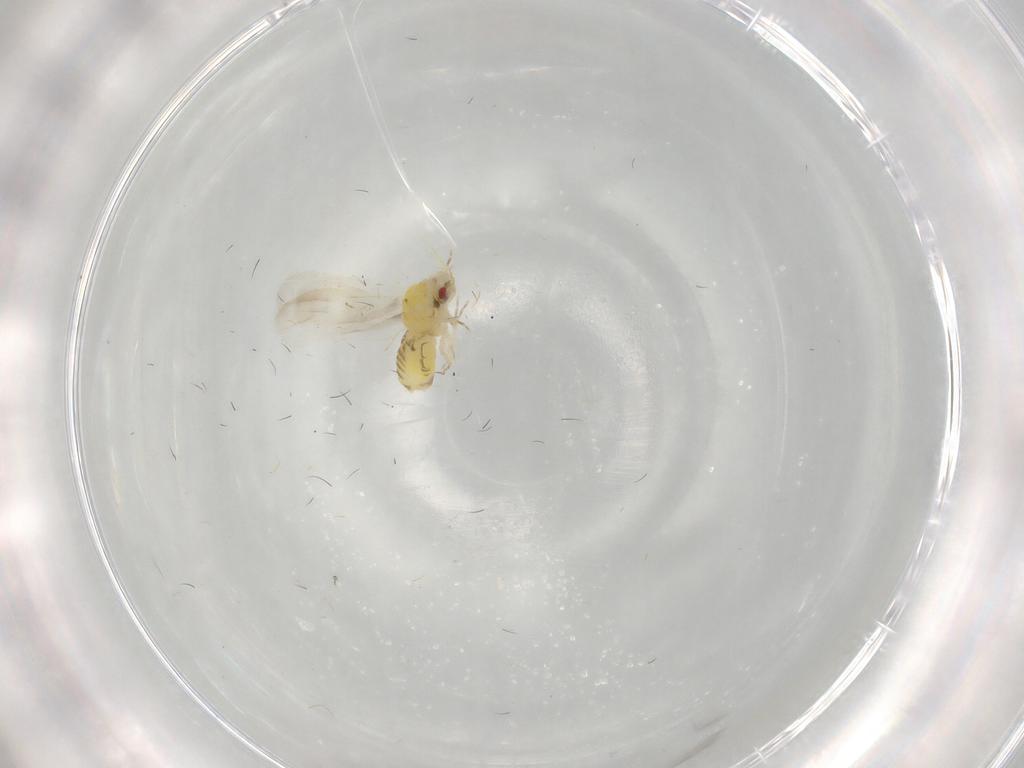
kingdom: Animalia
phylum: Arthropoda
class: Insecta
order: Hemiptera
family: Aleyrodidae
